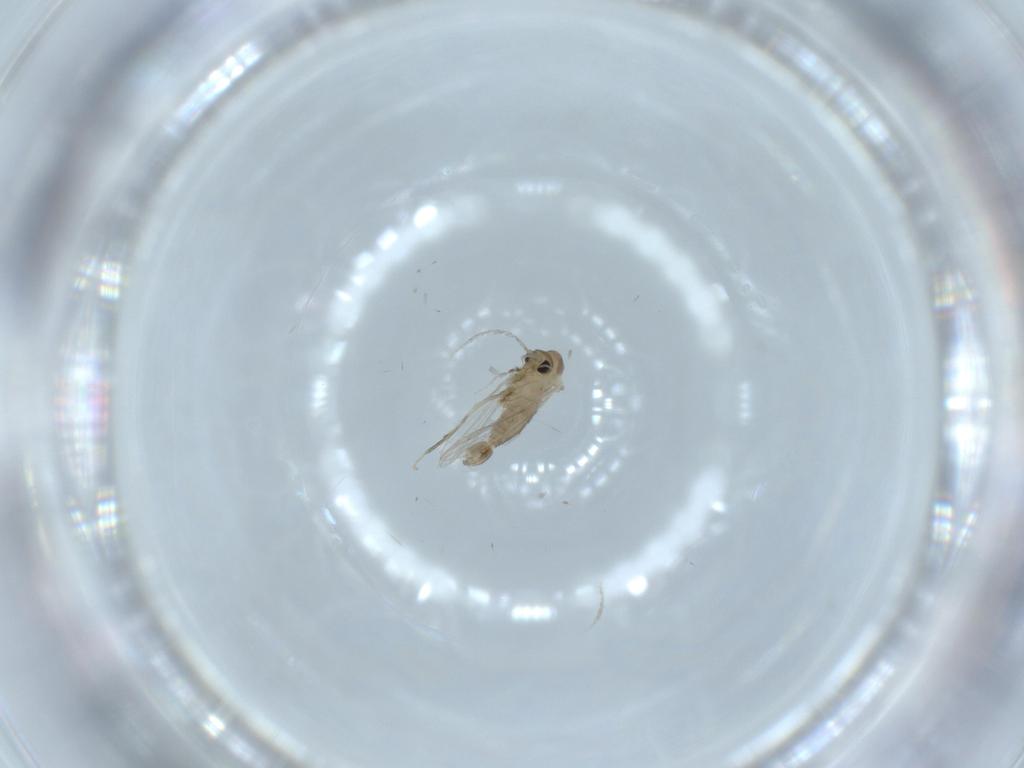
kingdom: Animalia
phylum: Arthropoda
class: Insecta
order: Diptera
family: Psychodidae
